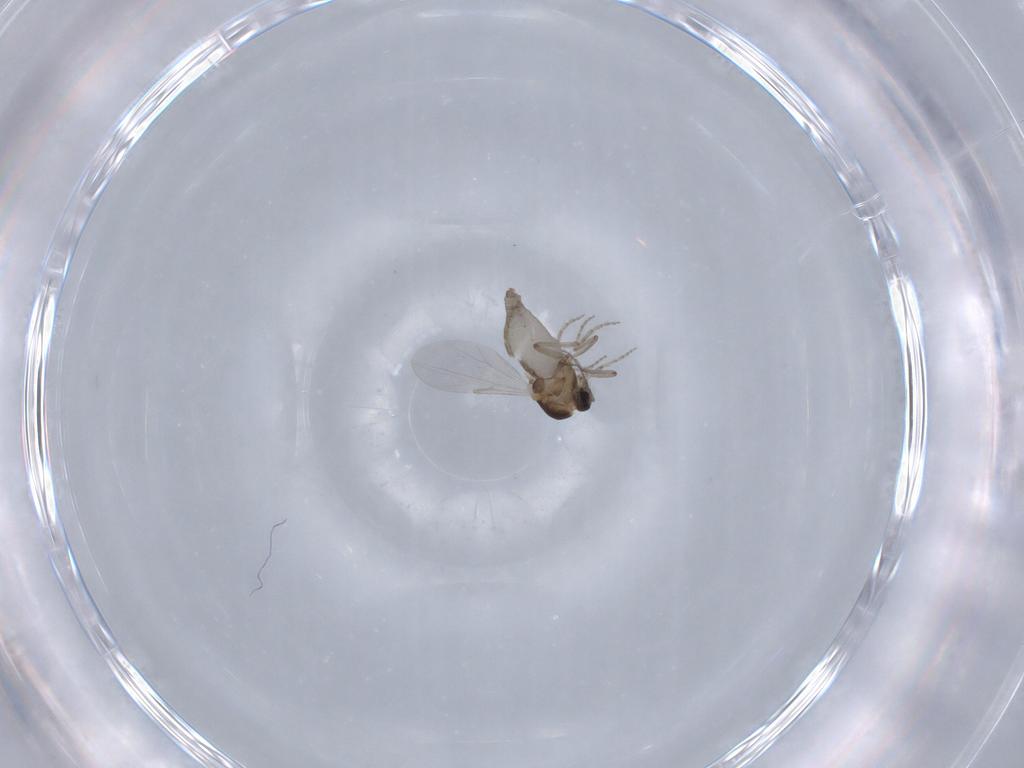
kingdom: Animalia
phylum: Arthropoda
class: Insecta
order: Diptera
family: Ceratopogonidae
